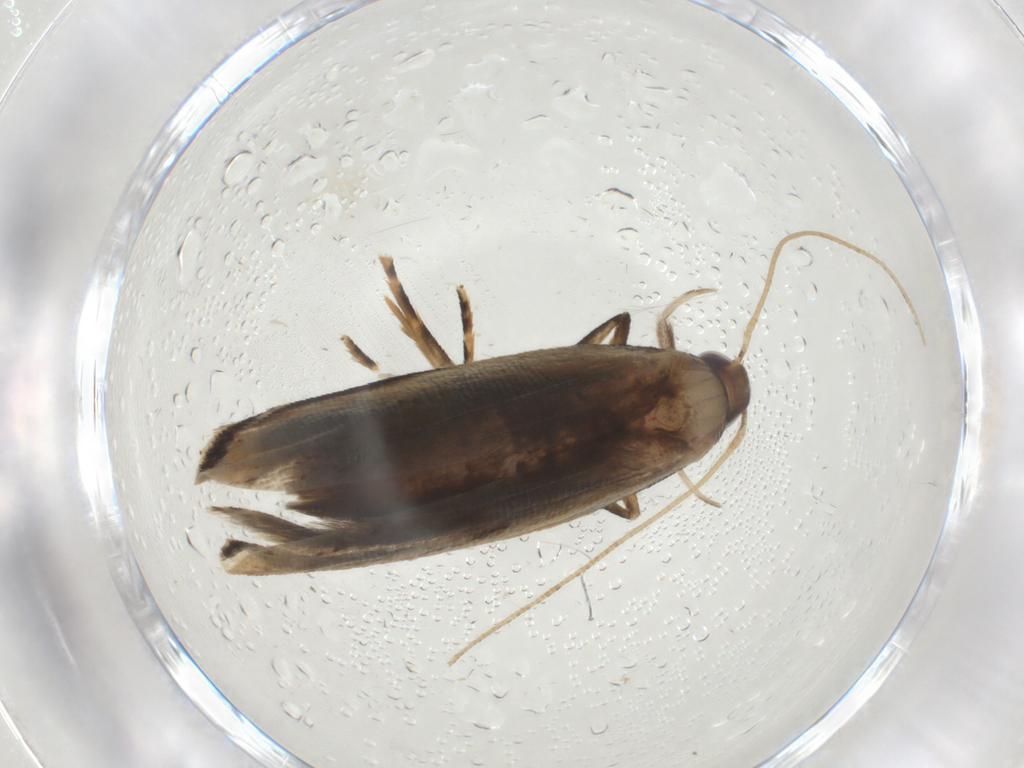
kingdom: Animalia
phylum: Arthropoda
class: Insecta
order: Lepidoptera
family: Gelechiidae
